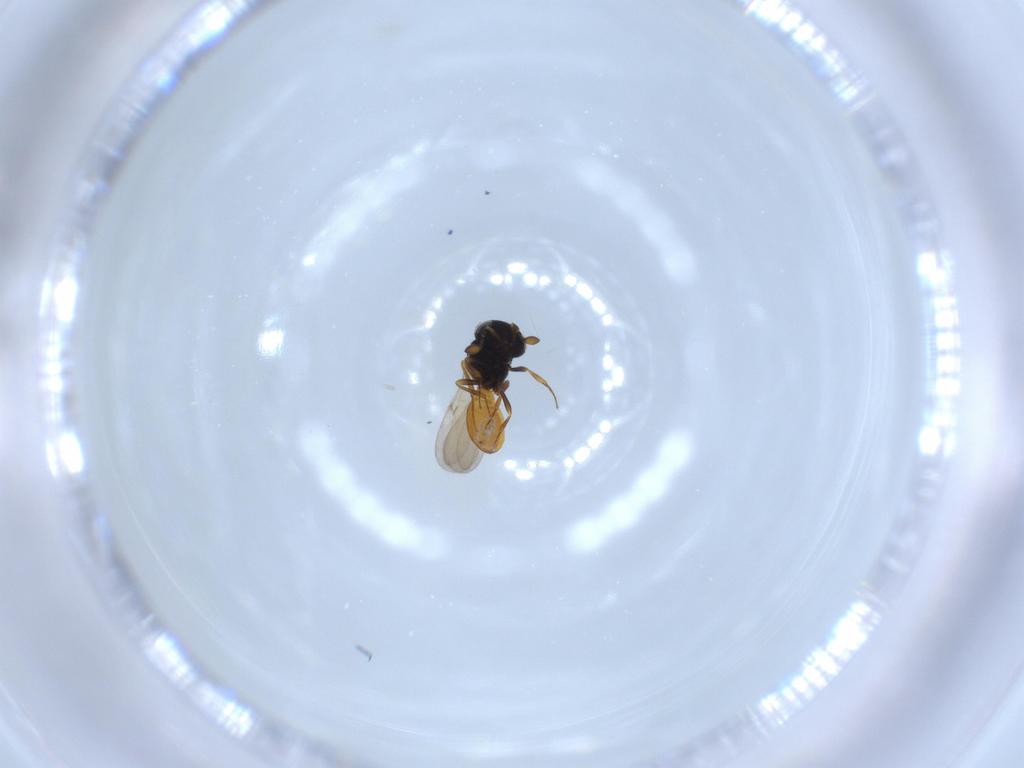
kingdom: Animalia
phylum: Arthropoda
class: Insecta
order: Hymenoptera
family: Scelionidae
